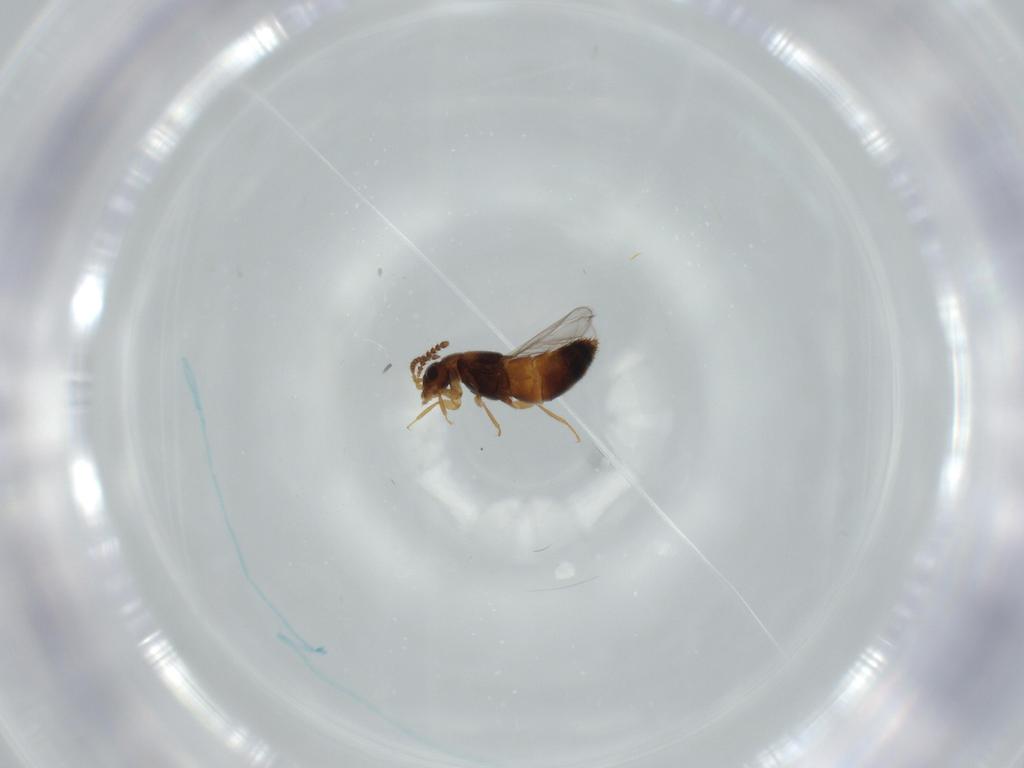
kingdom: Animalia
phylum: Arthropoda
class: Insecta
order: Coleoptera
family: Staphylinidae
